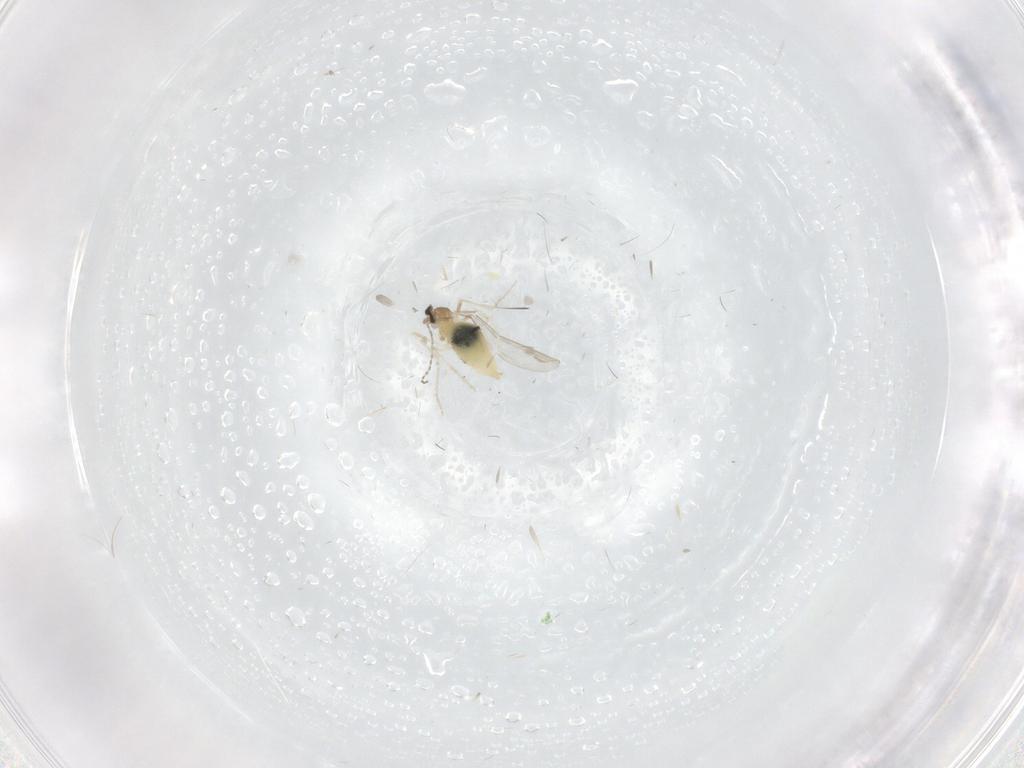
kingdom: Animalia
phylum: Arthropoda
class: Insecta
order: Diptera
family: Cecidomyiidae
